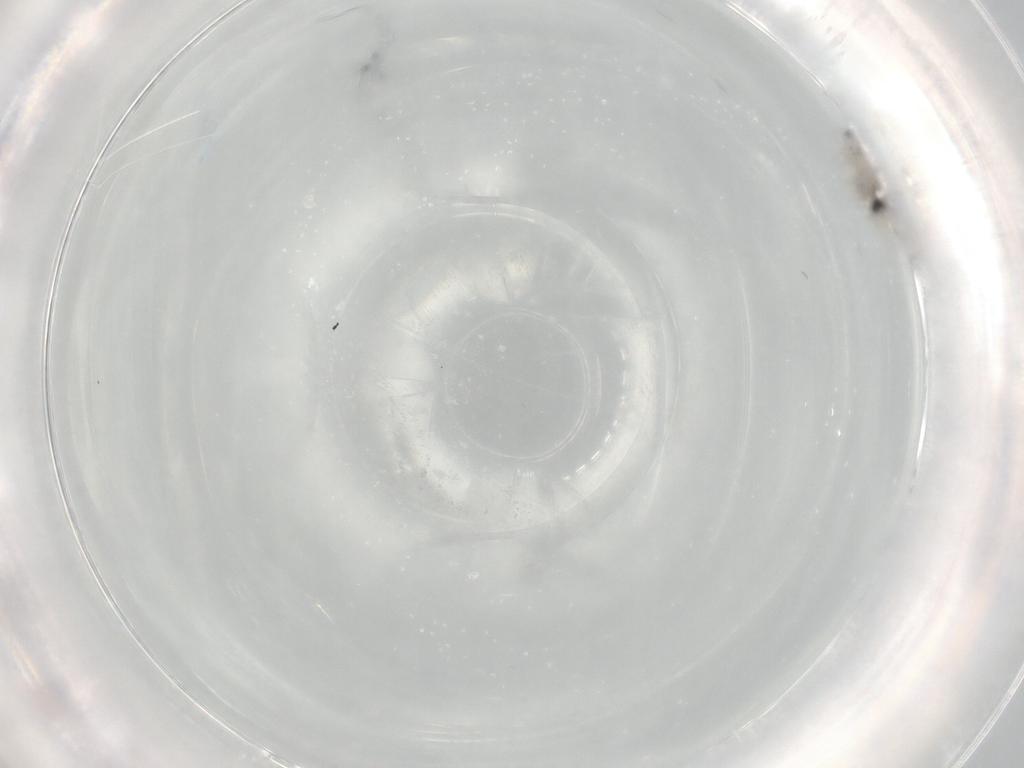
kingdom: Animalia
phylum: Arthropoda
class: Insecta
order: Diptera
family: Cecidomyiidae
